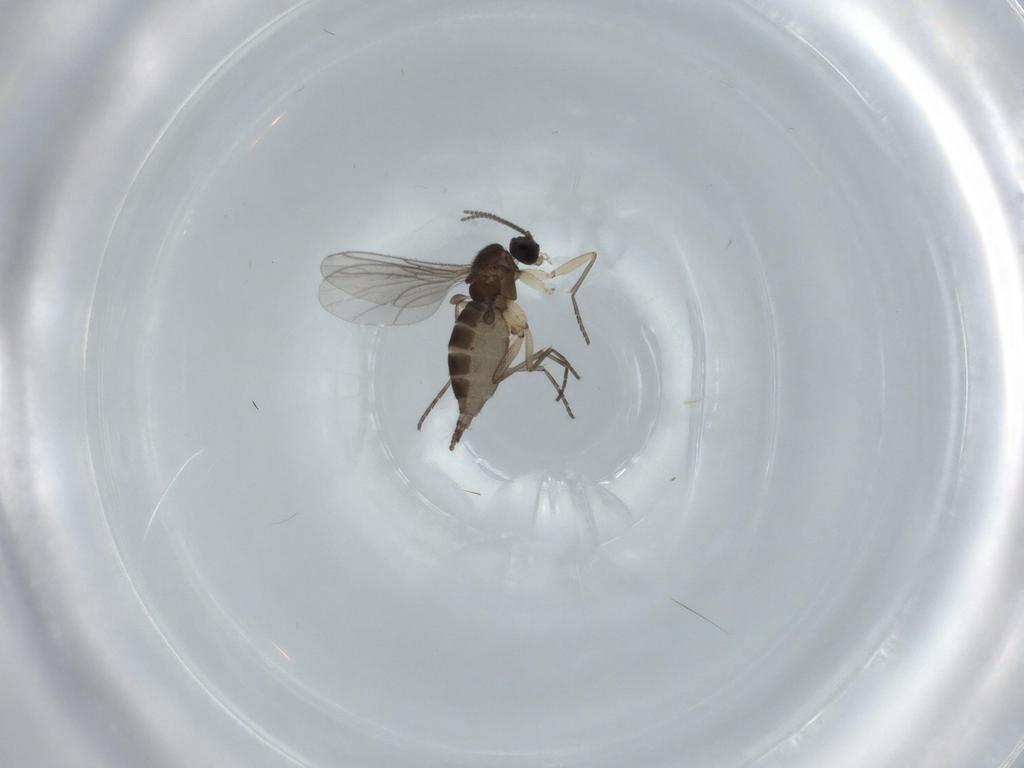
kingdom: Animalia
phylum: Arthropoda
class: Insecta
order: Diptera
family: Sciaridae
